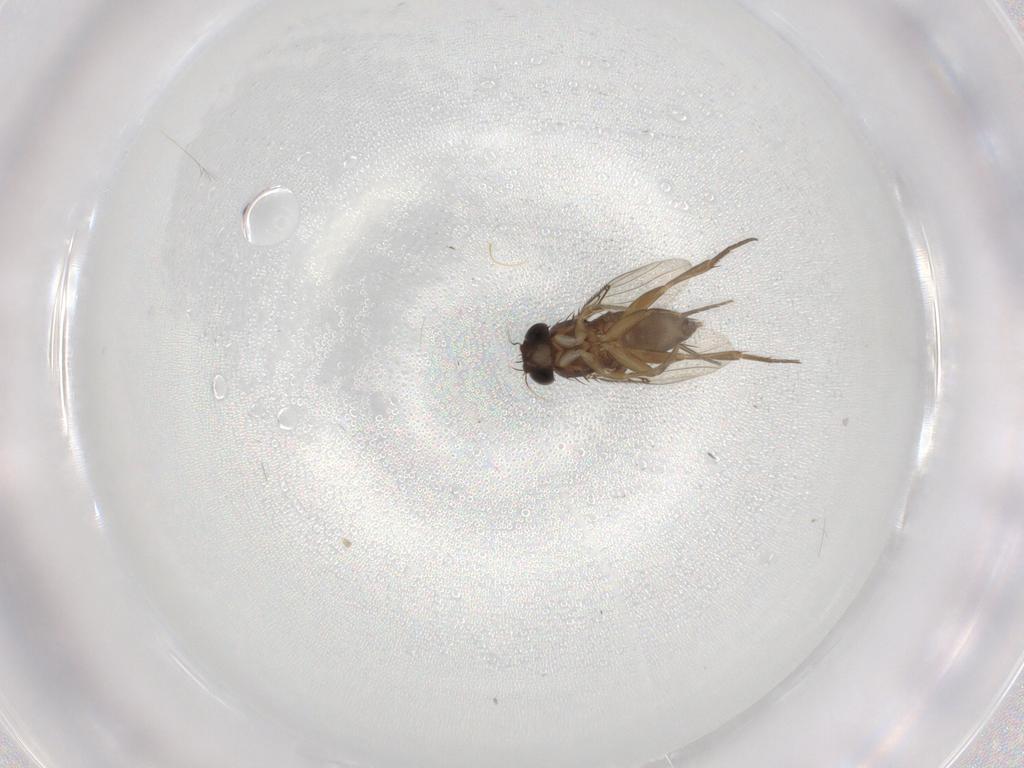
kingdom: Animalia
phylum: Arthropoda
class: Insecta
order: Diptera
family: Phoridae
